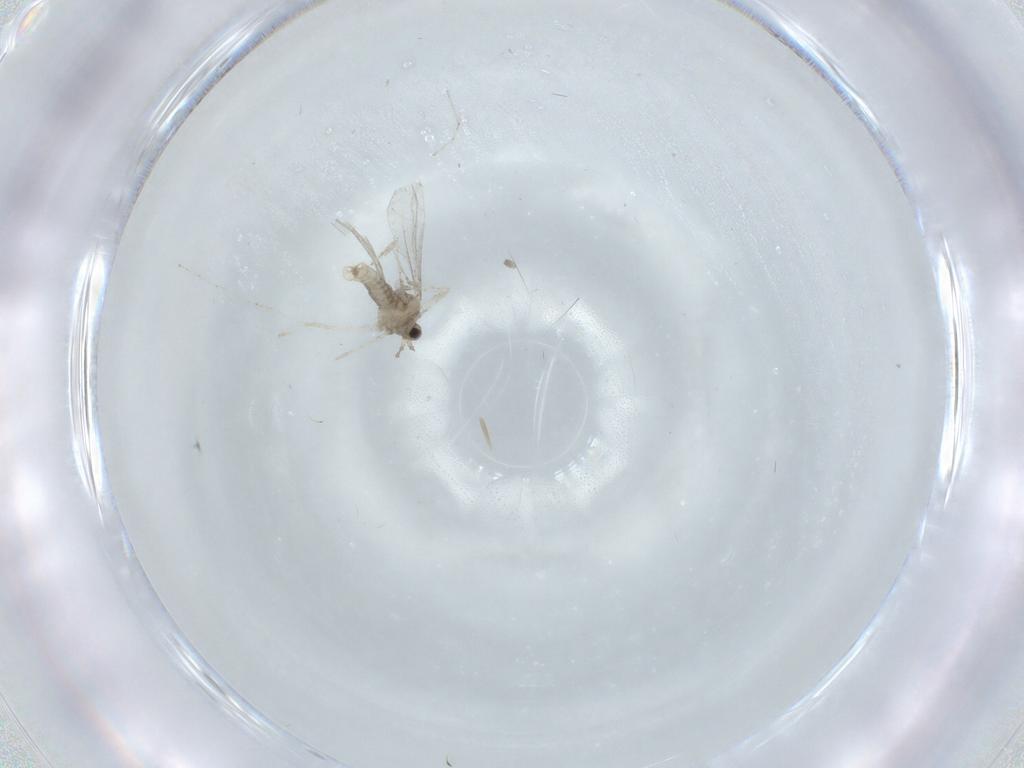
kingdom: Animalia
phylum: Arthropoda
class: Insecta
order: Diptera
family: Cecidomyiidae
